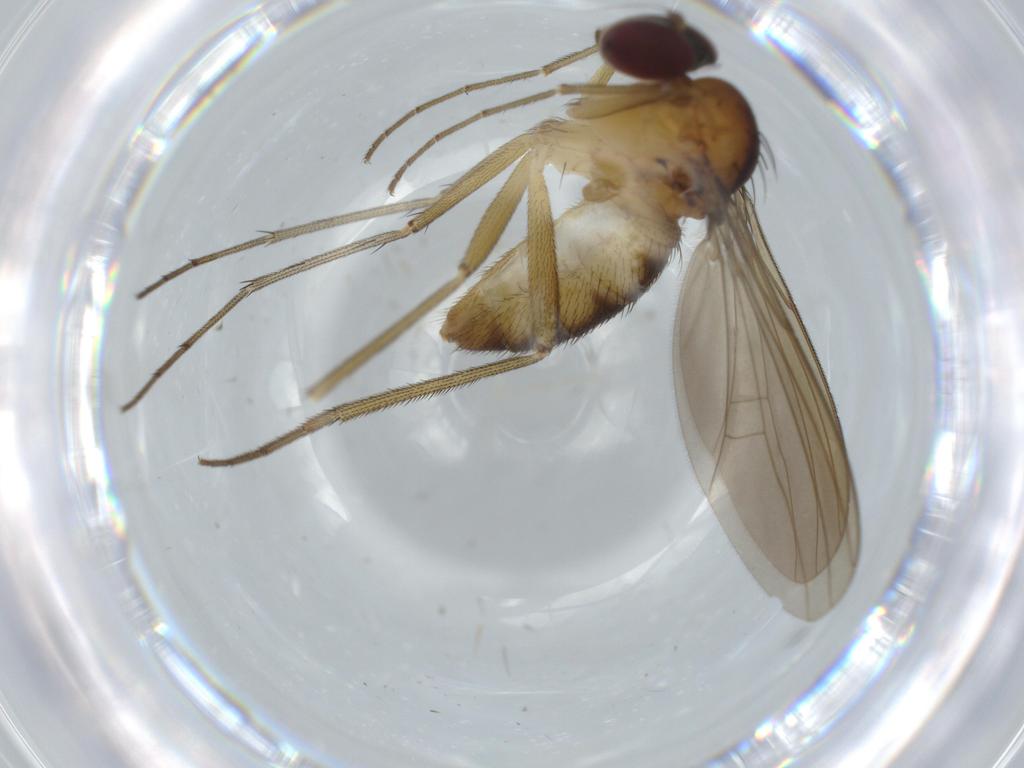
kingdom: Animalia
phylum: Arthropoda
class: Insecta
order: Diptera
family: Chironomidae
